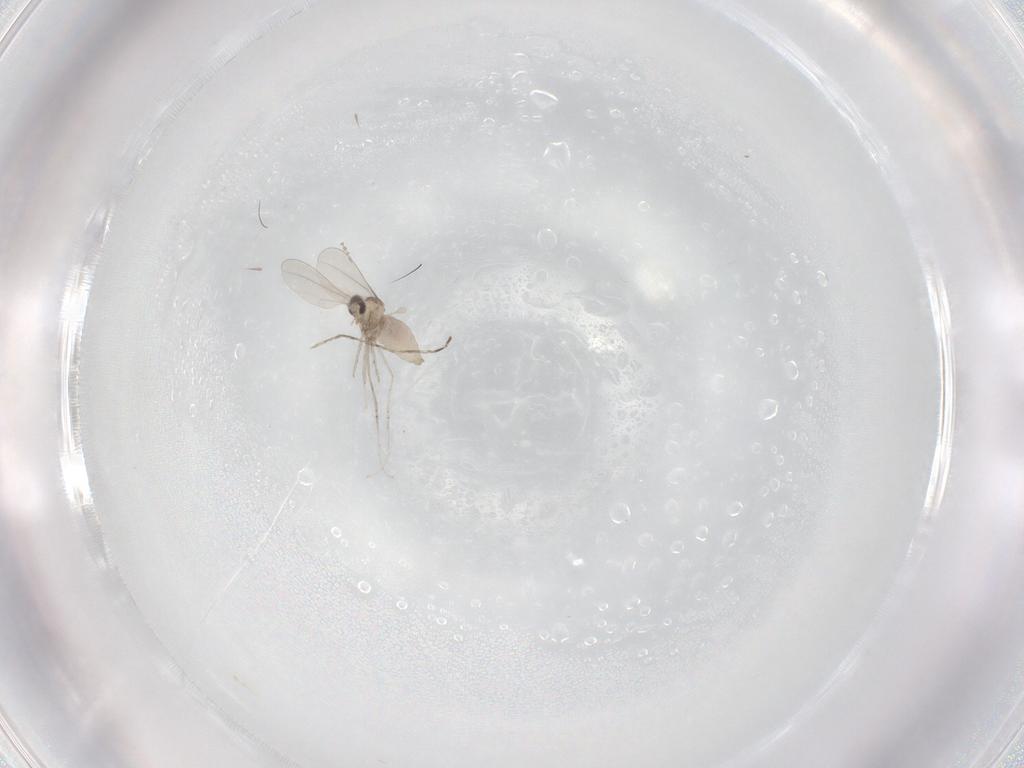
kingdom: Animalia
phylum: Arthropoda
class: Insecta
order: Diptera
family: Cecidomyiidae
